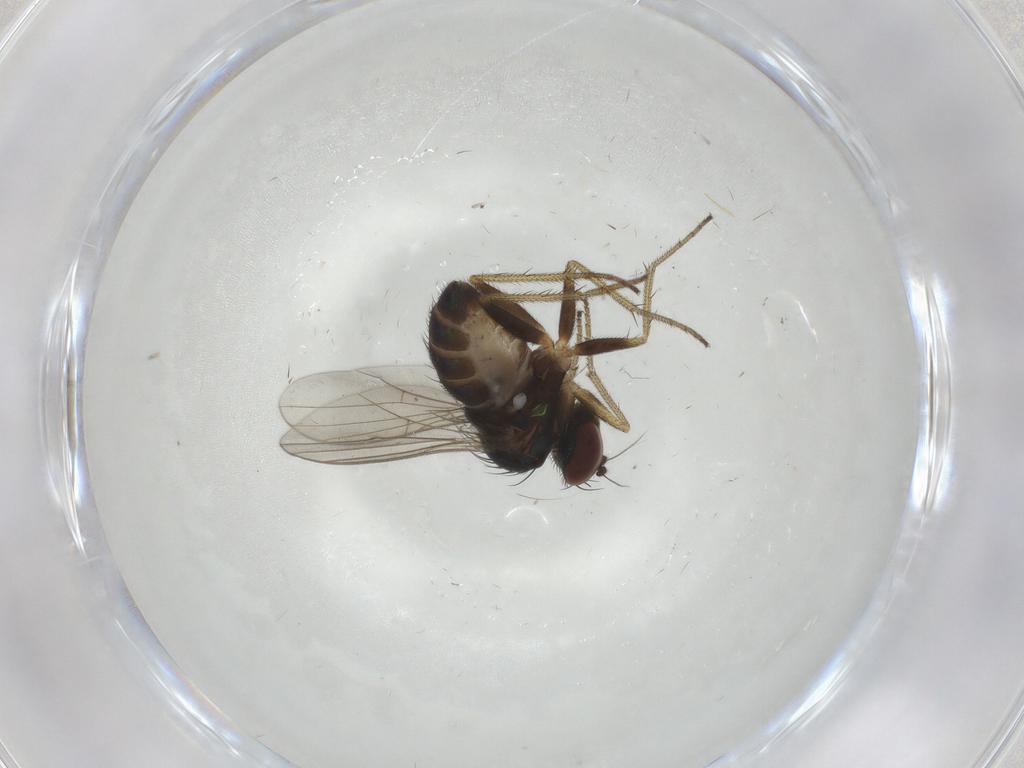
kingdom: Animalia
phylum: Arthropoda
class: Insecta
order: Diptera
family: Dolichopodidae
